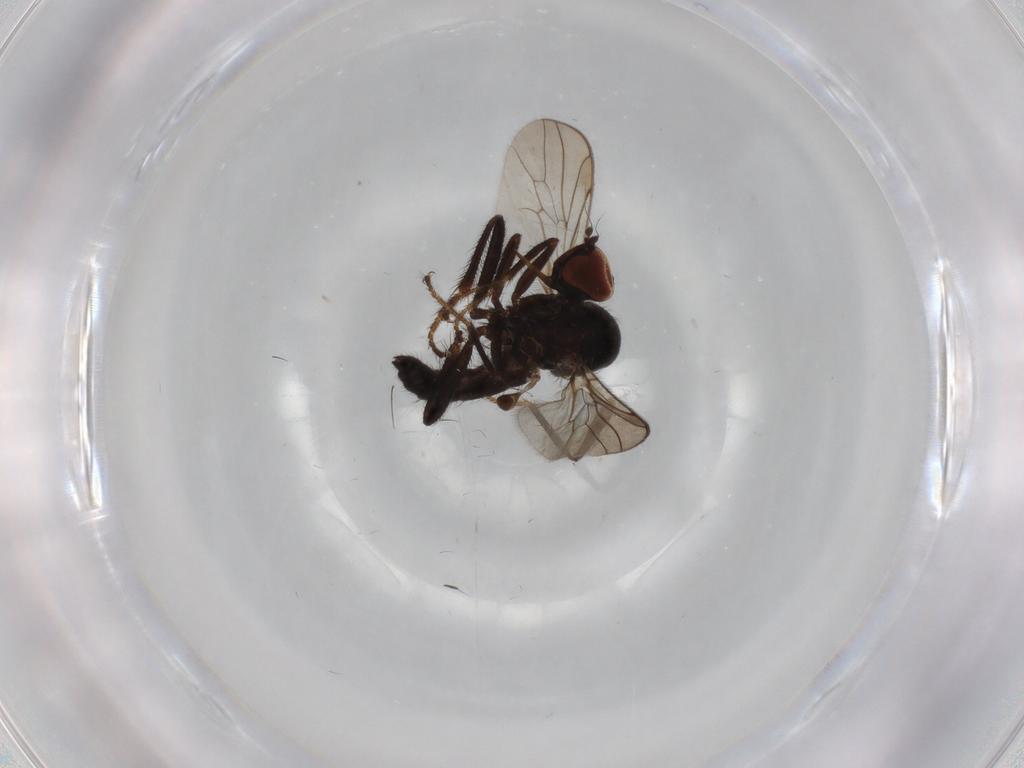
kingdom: Animalia
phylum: Arthropoda
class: Insecta
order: Diptera
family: Hybotidae
